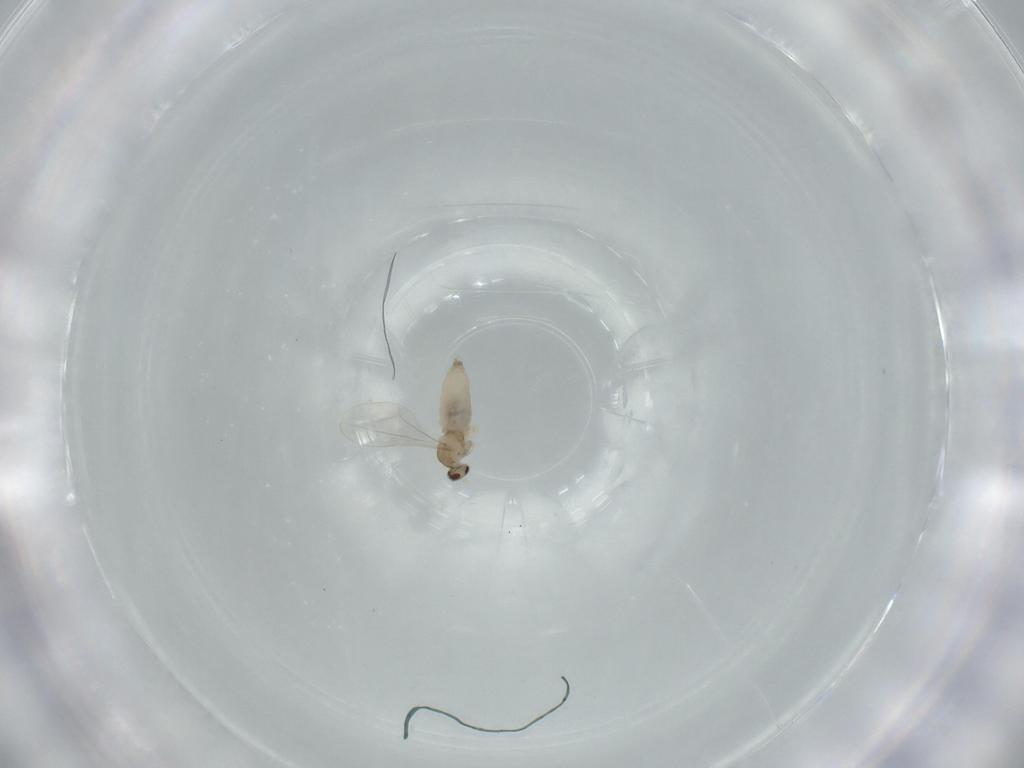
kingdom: Animalia
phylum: Arthropoda
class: Insecta
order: Diptera
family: Cecidomyiidae
